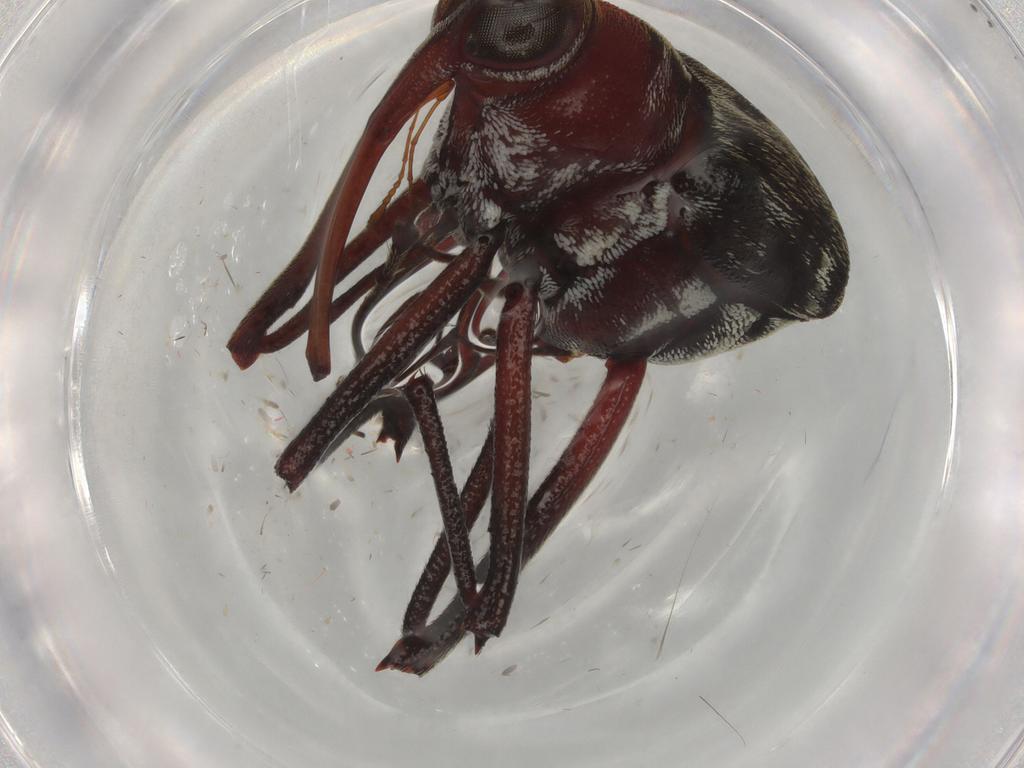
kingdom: Animalia
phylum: Arthropoda
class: Insecta
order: Coleoptera
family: Curculionidae
